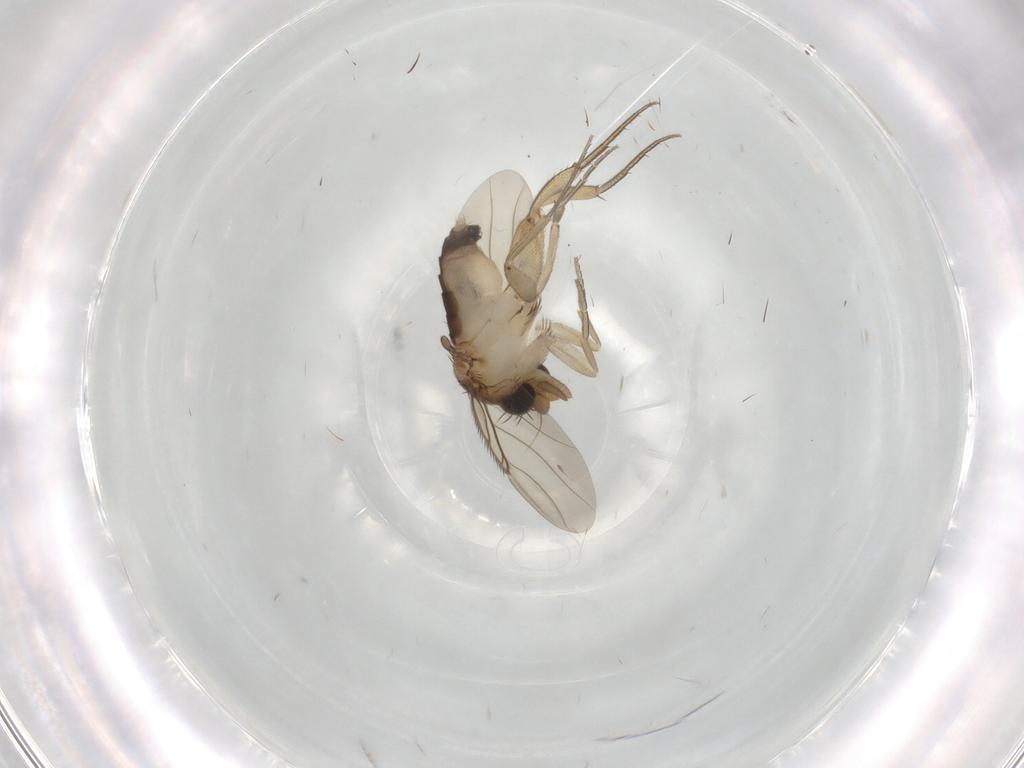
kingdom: Animalia
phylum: Arthropoda
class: Insecta
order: Diptera
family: Phoridae
